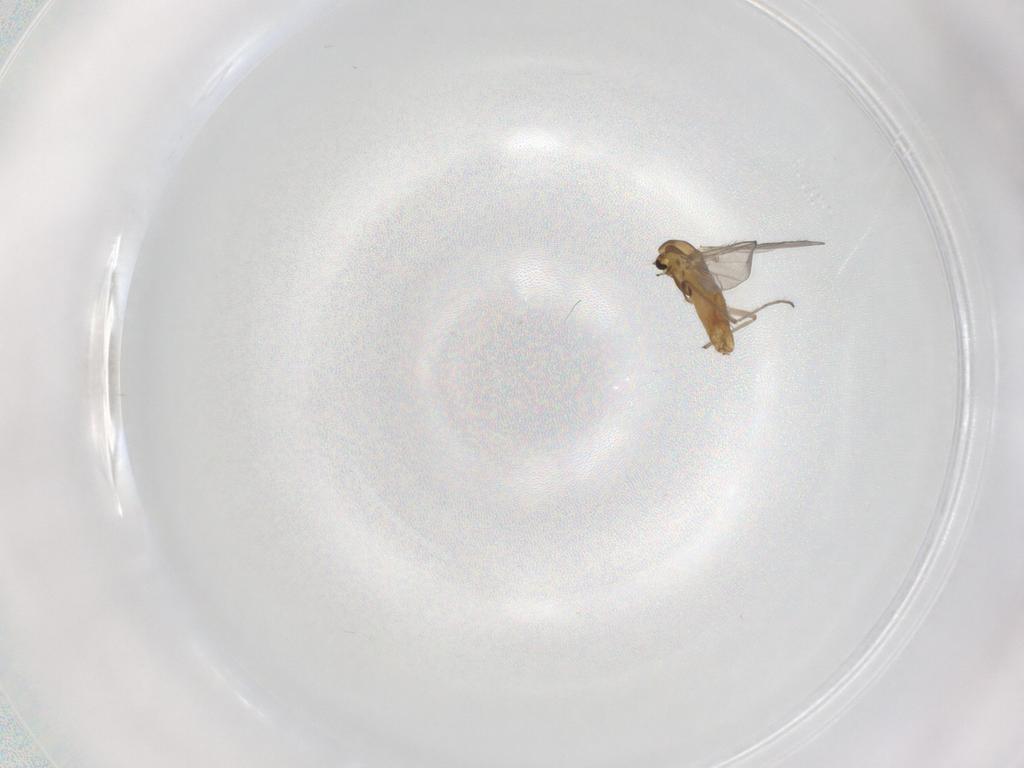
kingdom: Animalia
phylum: Arthropoda
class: Insecta
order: Diptera
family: Chironomidae
